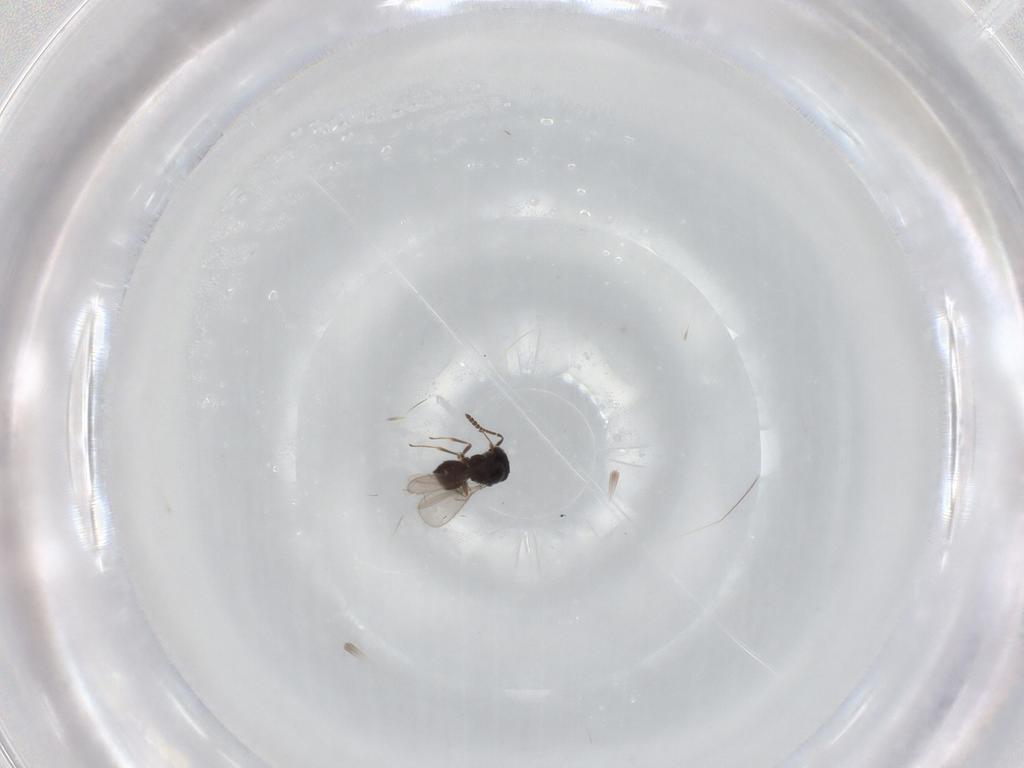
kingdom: Animalia
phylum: Arthropoda
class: Insecta
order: Hymenoptera
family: Scelionidae
